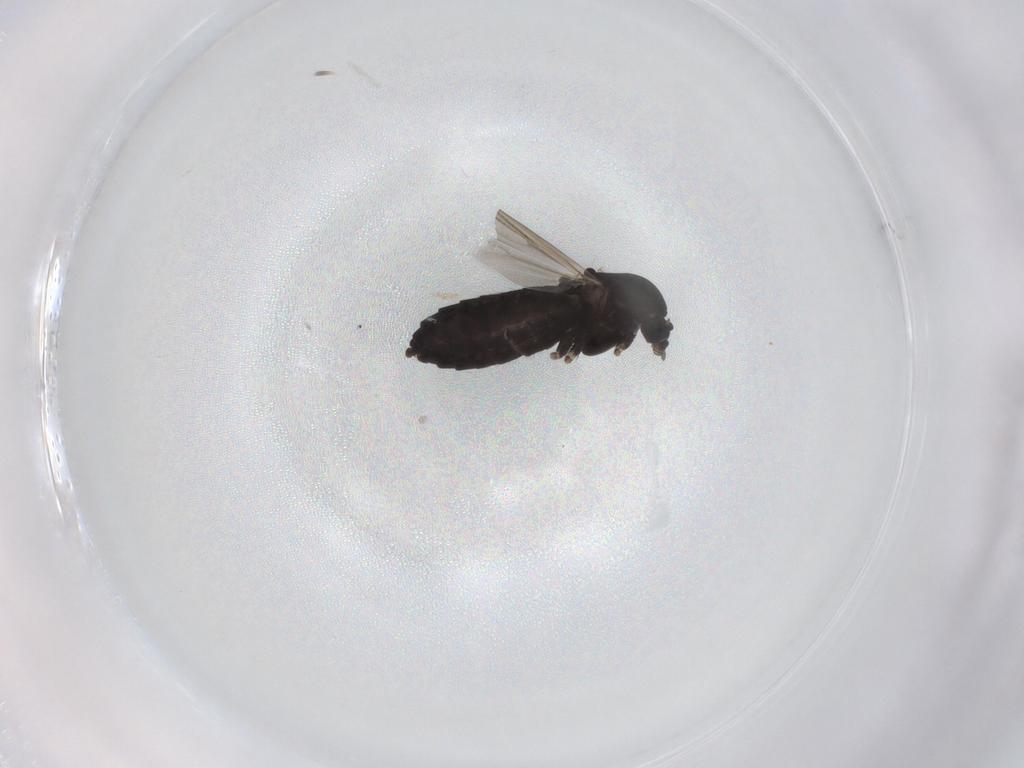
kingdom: Animalia
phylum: Arthropoda
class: Insecta
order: Diptera
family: Chironomidae
